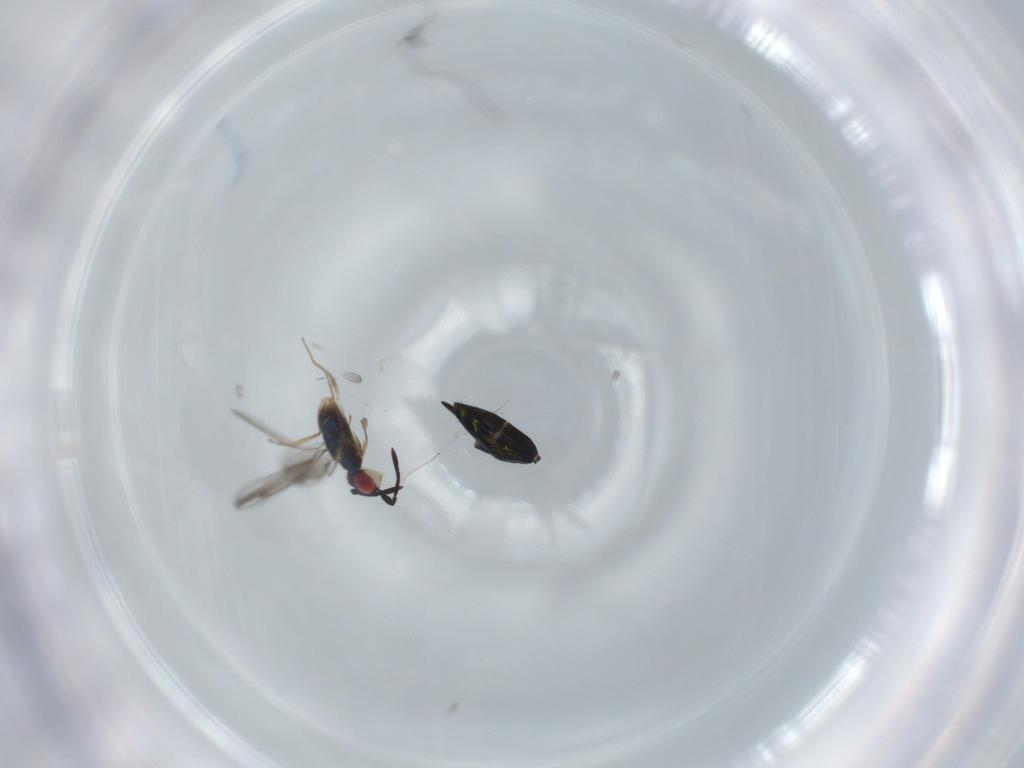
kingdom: Animalia
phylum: Arthropoda
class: Insecta
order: Hymenoptera
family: Pteromalidae
